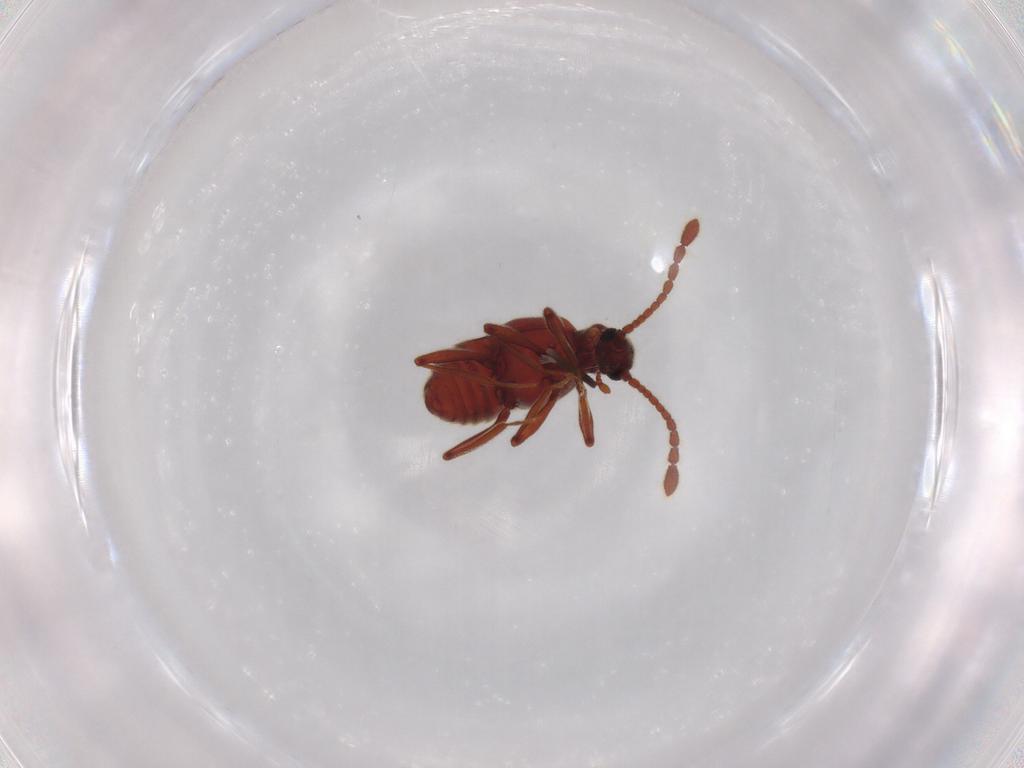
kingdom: Animalia
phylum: Arthropoda
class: Insecta
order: Coleoptera
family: Staphylinidae
